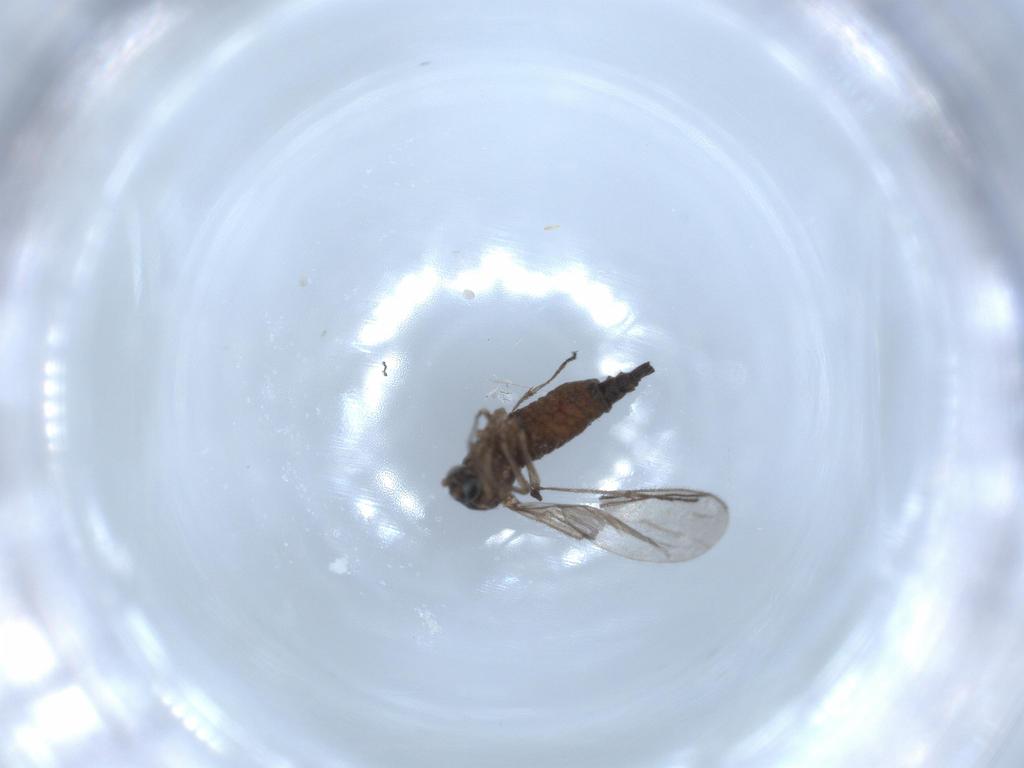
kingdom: Animalia
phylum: Arthropoda
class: Insecta
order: Diptera
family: Sciaridae
